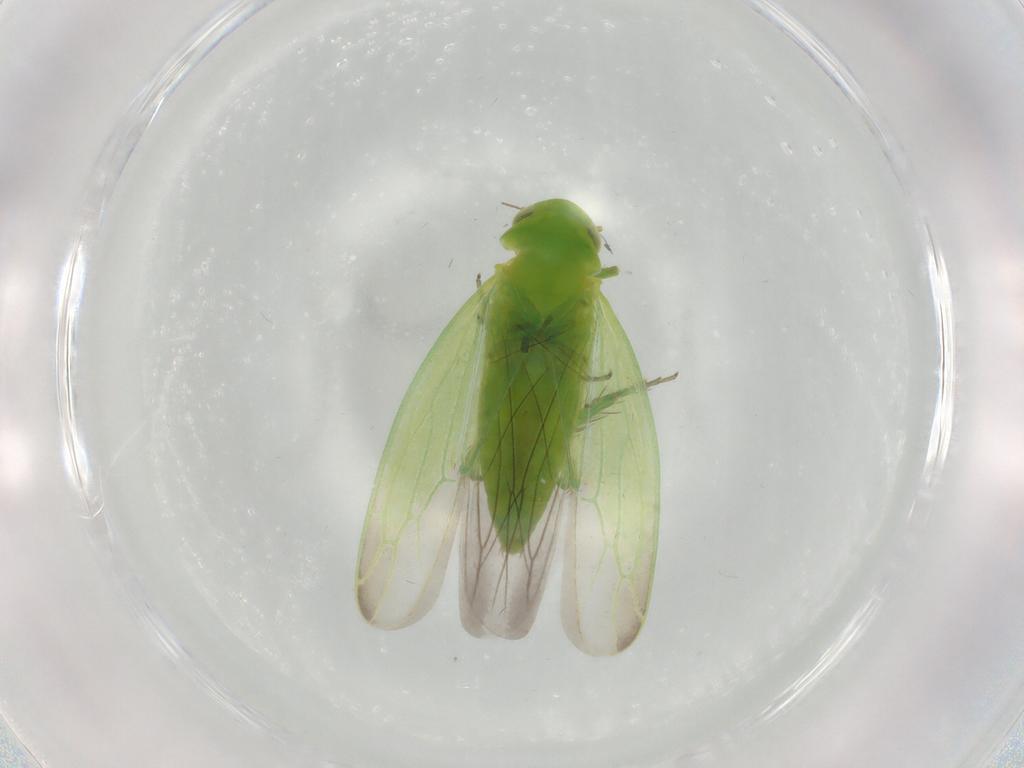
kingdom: Animalia
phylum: Arthropoda
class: Insecta
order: Hemiptera
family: Cicadellidae
